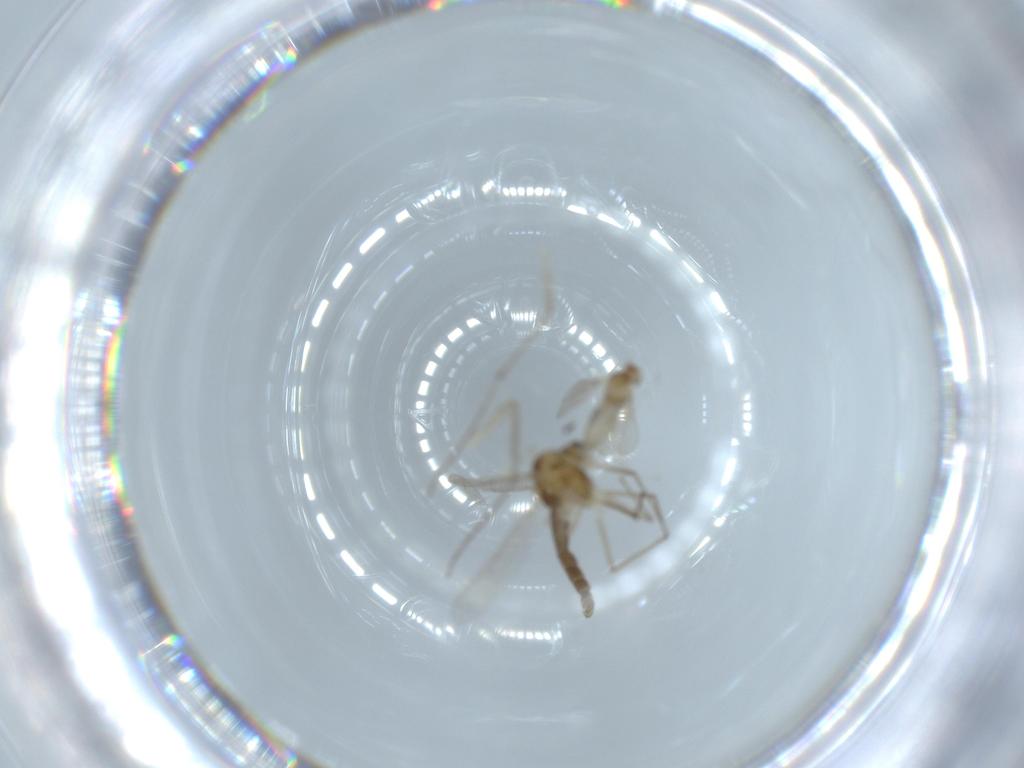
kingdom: Animalia
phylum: Arthropoda
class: Insecta
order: Diptera
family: Chironomidae
